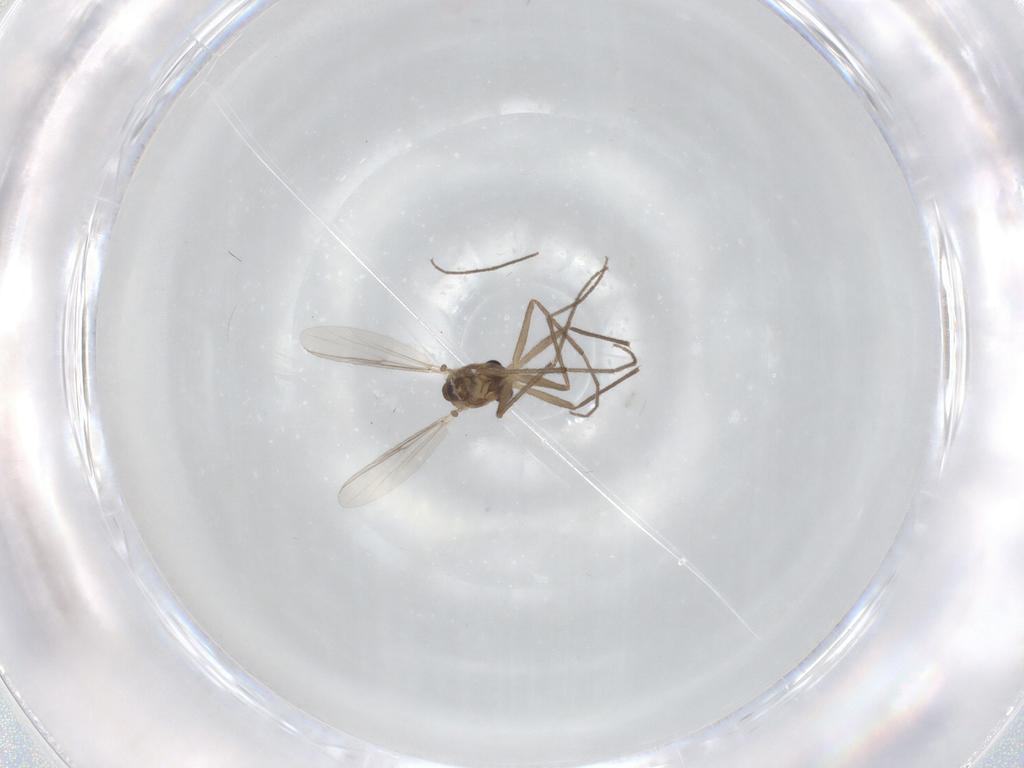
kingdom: Animalia
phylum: Arthropoda
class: Insecta
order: Diptera
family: Chironomidae
